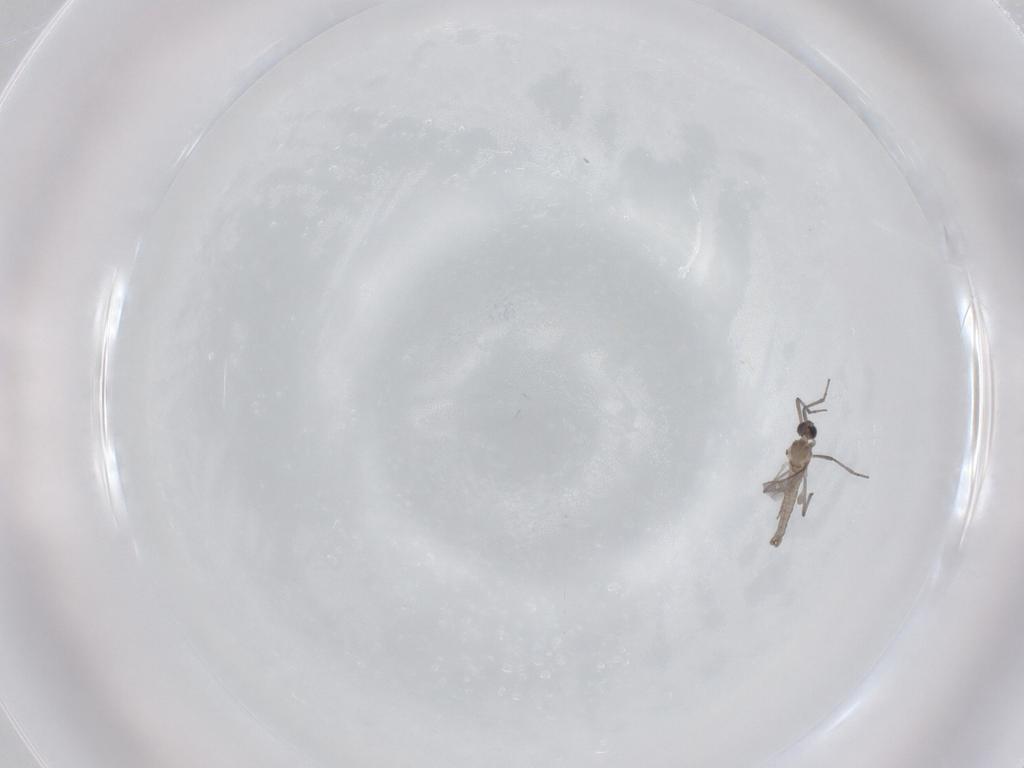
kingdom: Animalia
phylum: Arthropoda
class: Insecta
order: Diptera
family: Cecidomyiidae
